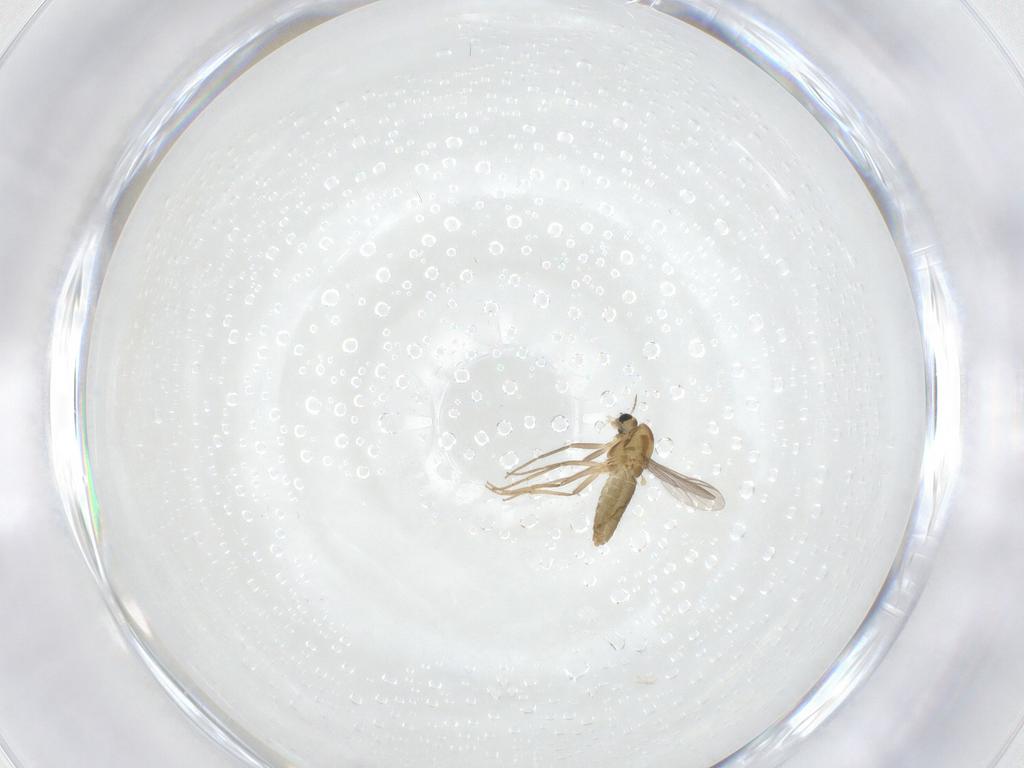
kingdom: Animalia
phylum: Arthropoda
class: Insecta
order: Diptera
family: Chironomidae
